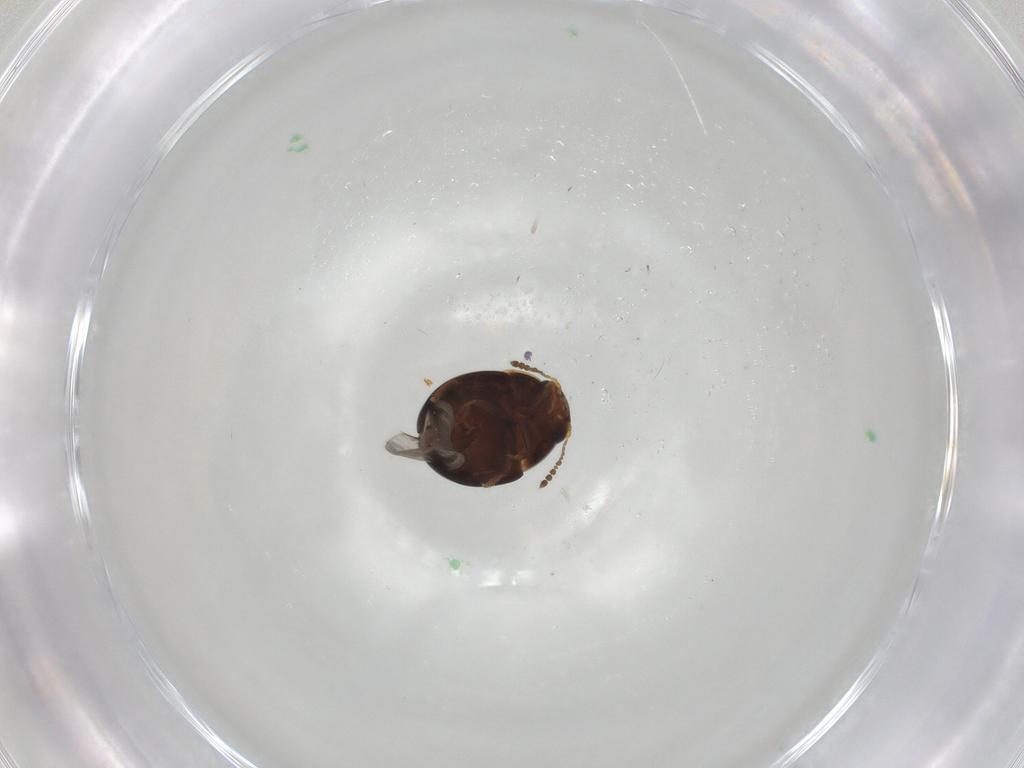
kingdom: Animalia
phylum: Arthropoda
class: Insecta
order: Coleoptera
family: Leiodidae
